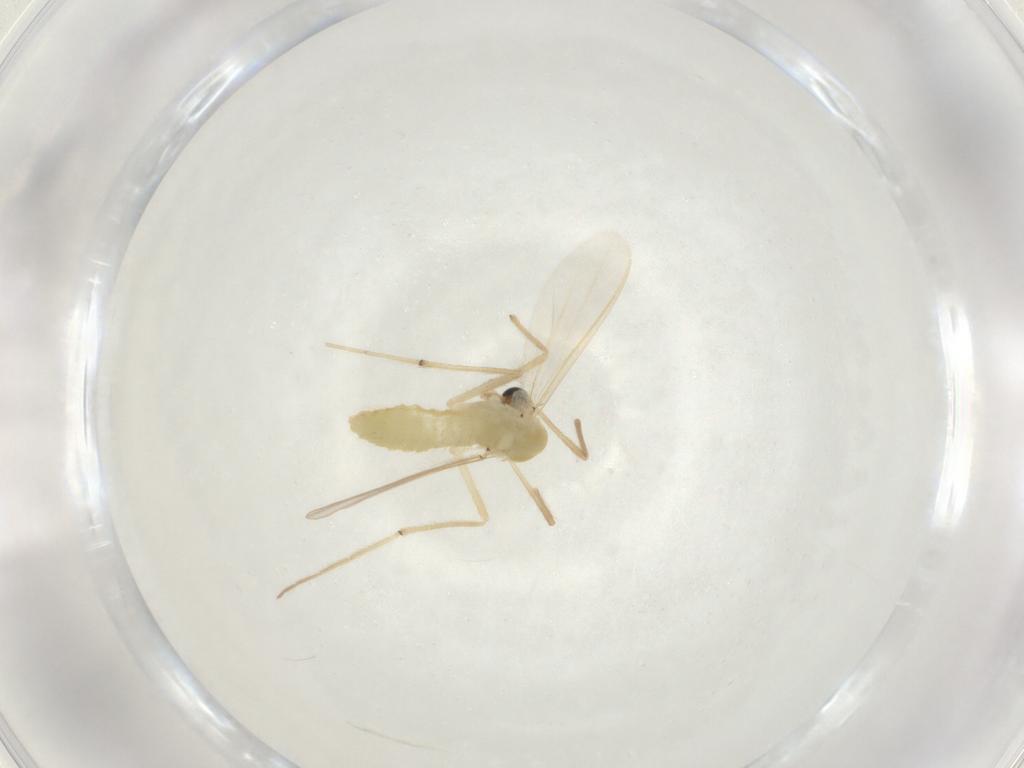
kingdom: Animalia
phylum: Arthropoda
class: Insecta
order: Diptera
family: Chironomidae
